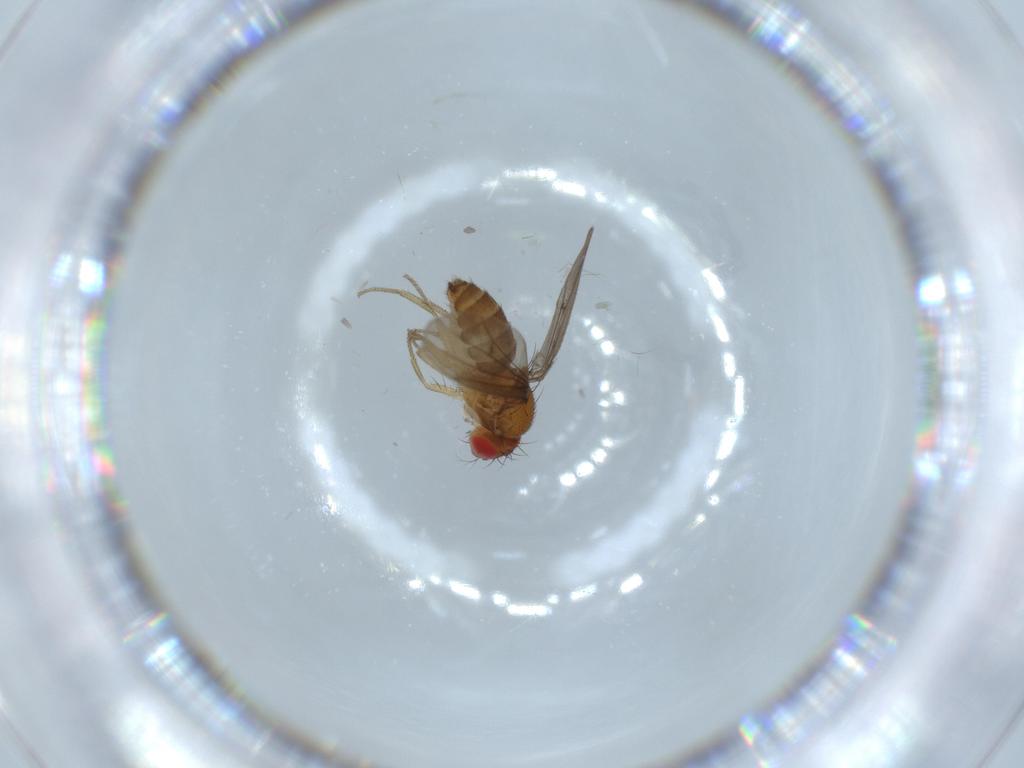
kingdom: Animalia
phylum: Arthropoda
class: Insecta
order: Diptera
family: Drosophilidae
